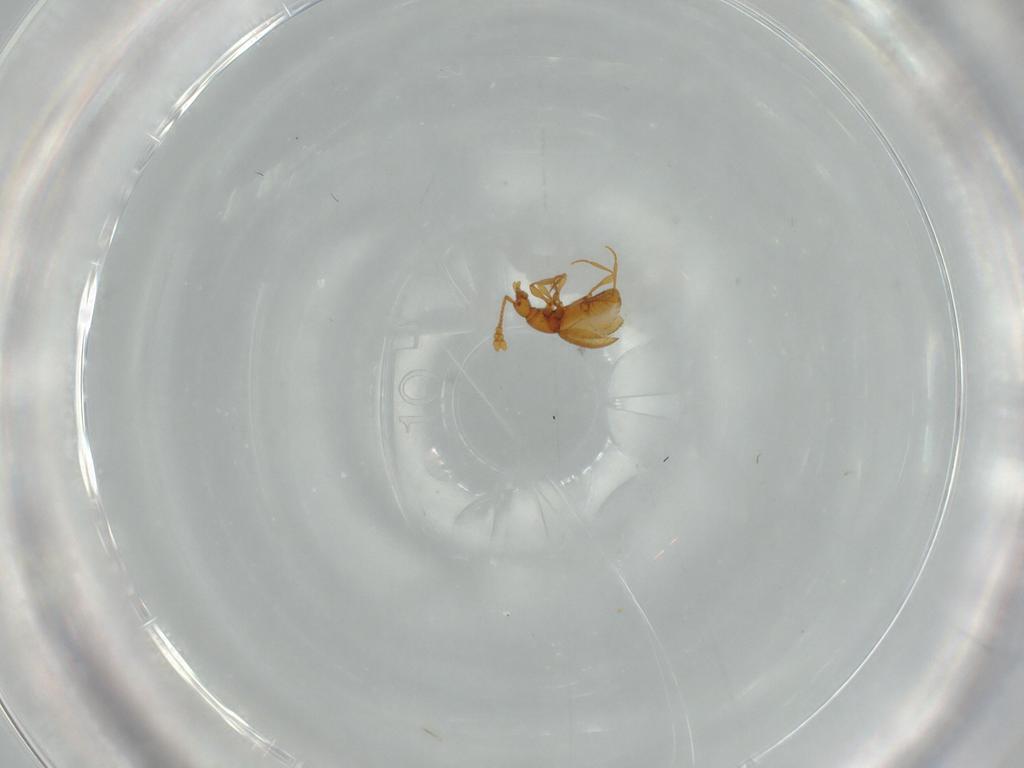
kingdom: Animalia
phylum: Arthropoda
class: Insecta
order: Coleoptera
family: Staphylinidae
